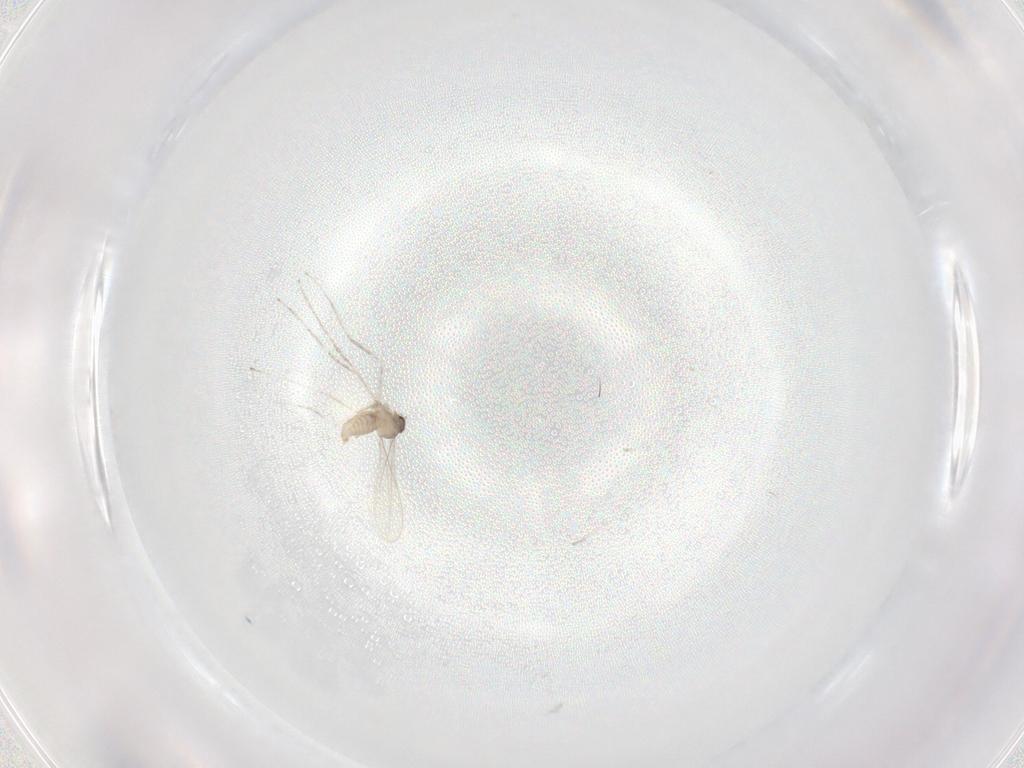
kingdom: Animalia
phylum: Arthropoda
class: Insecta
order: Diptera
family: Cecidomyiidae
